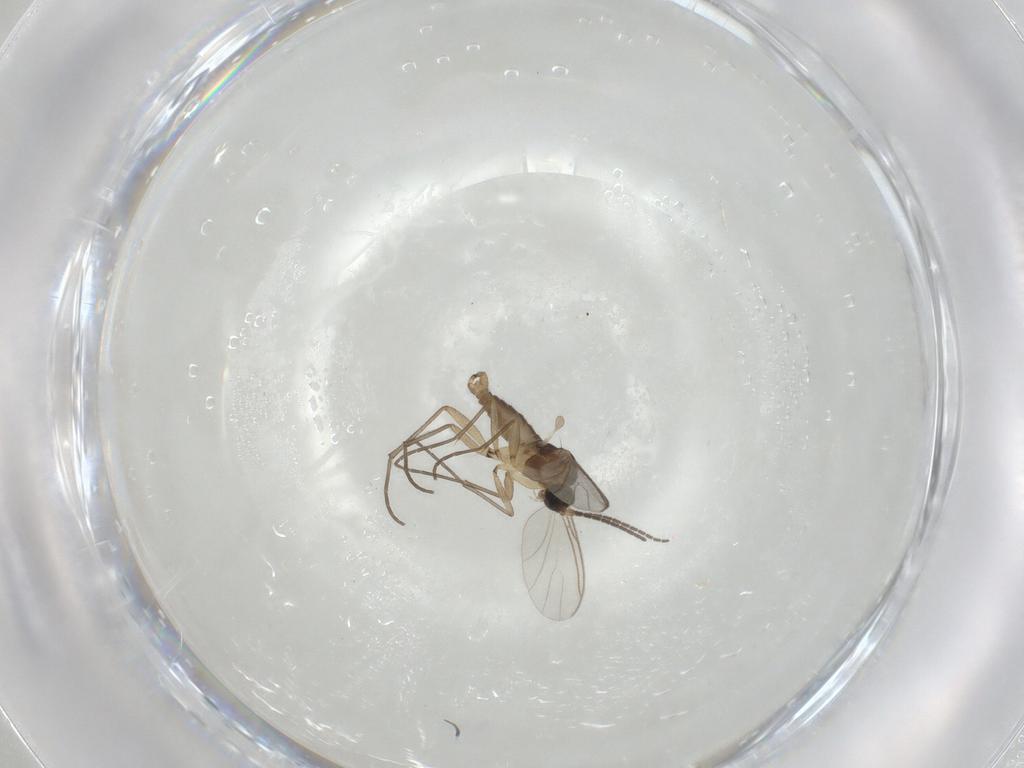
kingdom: Animalia
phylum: Arthropoda
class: Insecta
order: Diptera
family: Sciaridae
